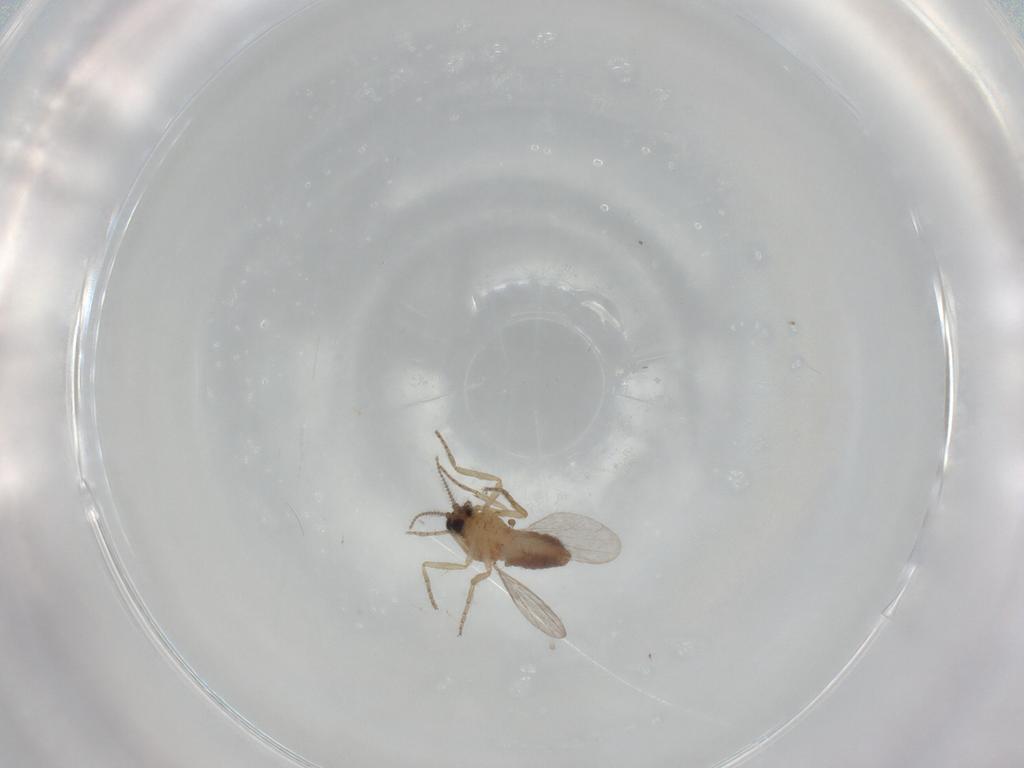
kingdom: Animalia
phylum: Arthropoda
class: Insecta
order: Diptera
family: Ceratopogonidae
